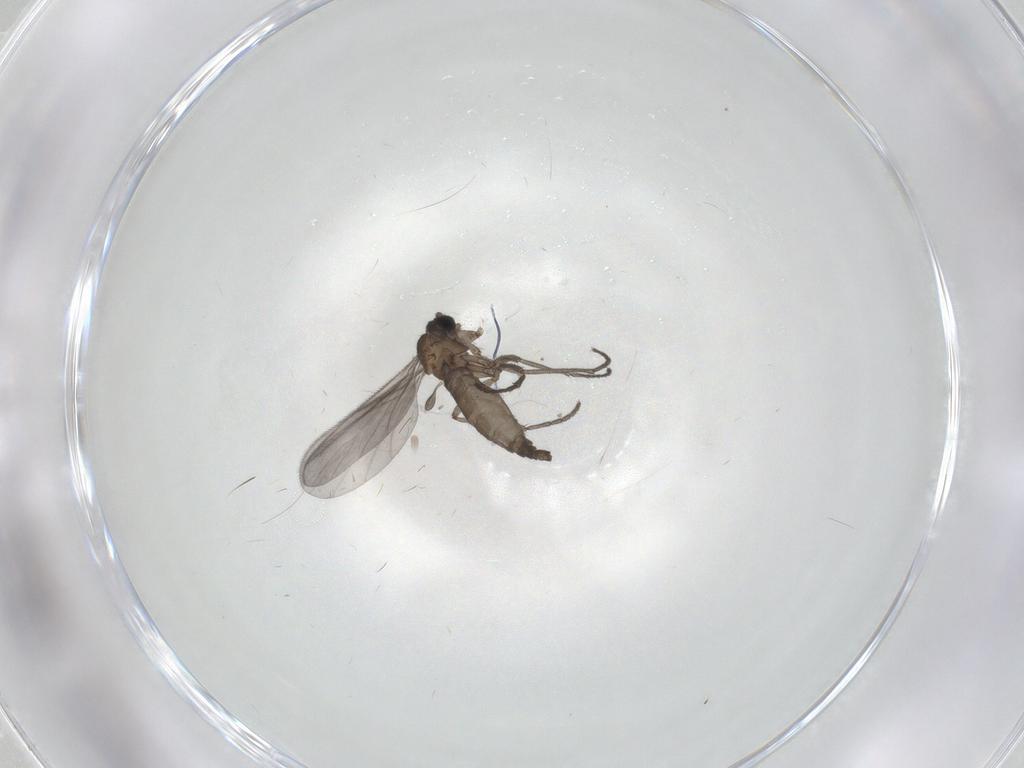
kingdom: Animalia
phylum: Arthropoda
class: Insecta
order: Diptera
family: Sciaridae
